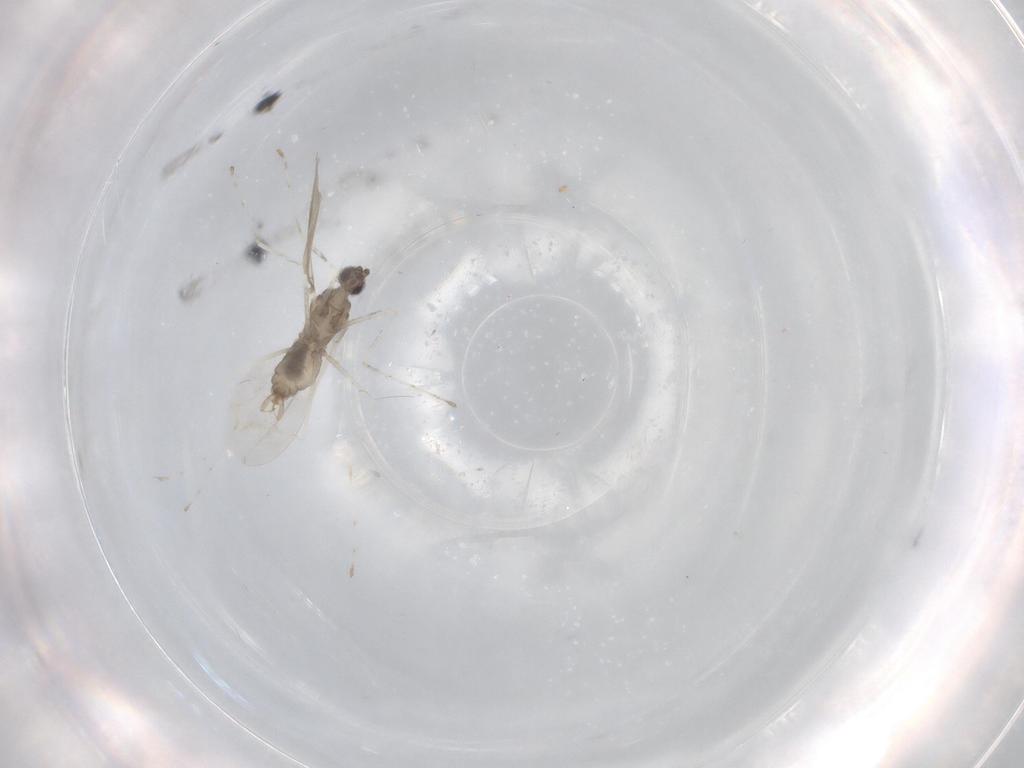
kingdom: Animalia
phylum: Arthropoda
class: Insecta
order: Diptera
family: Cecidomyiidae
